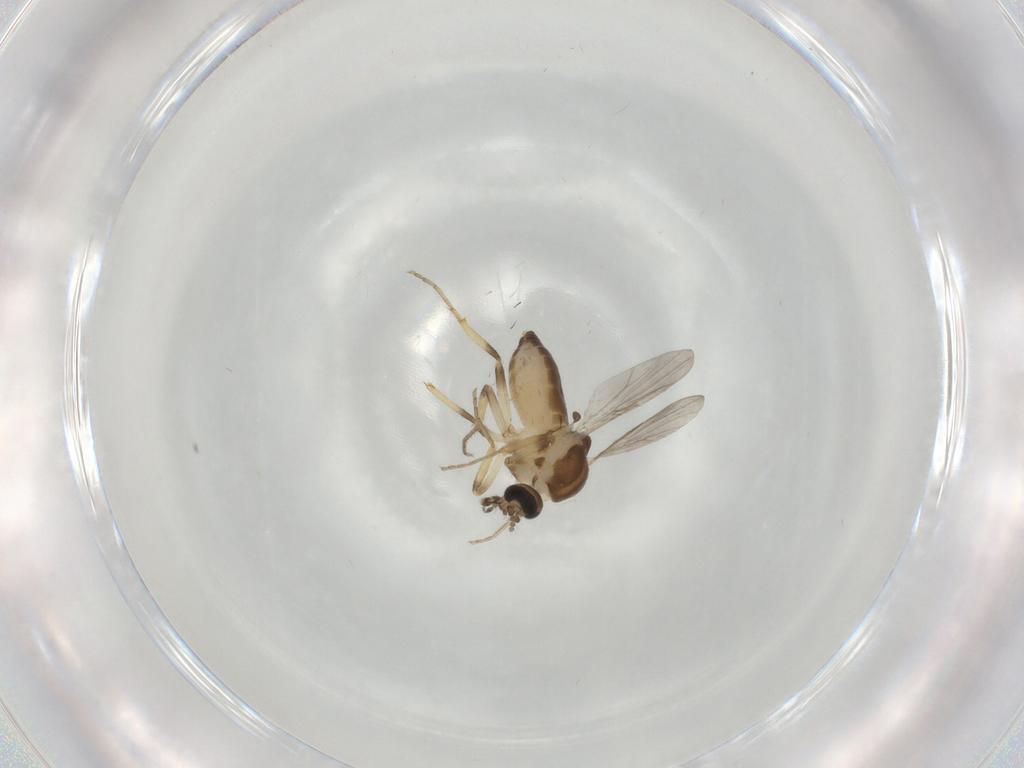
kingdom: Animalia
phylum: Arthropoda
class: Insecta
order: Diptera
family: Ceratopogonidae
